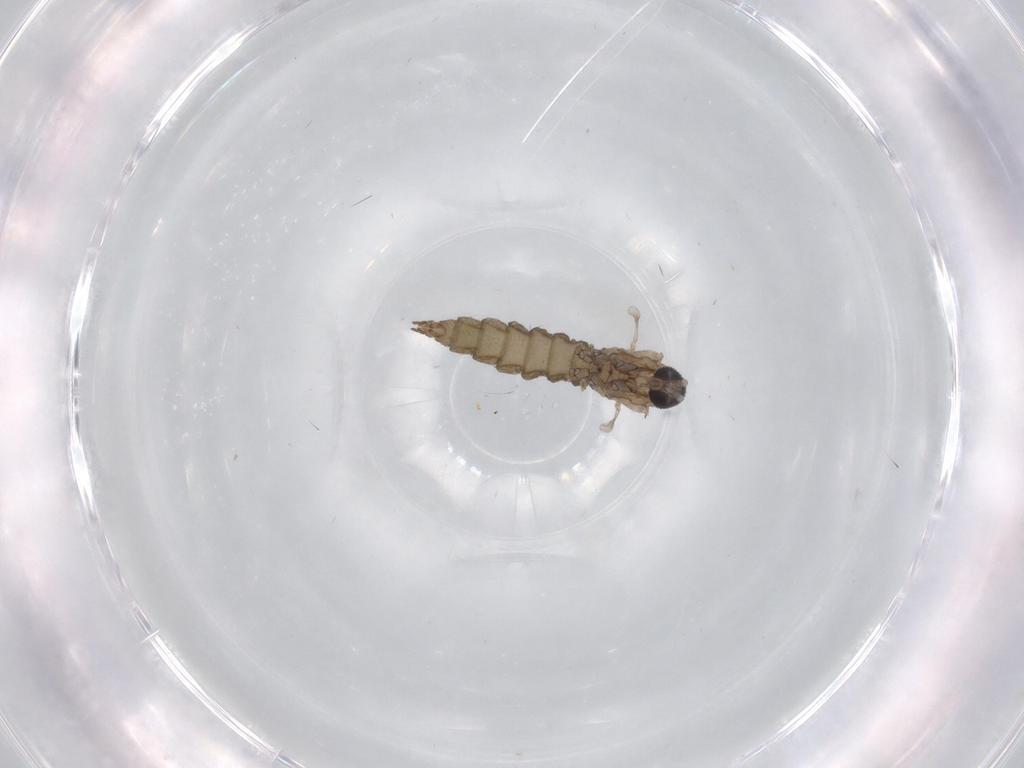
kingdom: Animalia
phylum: Arthropoda
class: Insecta
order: Diptera
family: Cecidomyiidae
